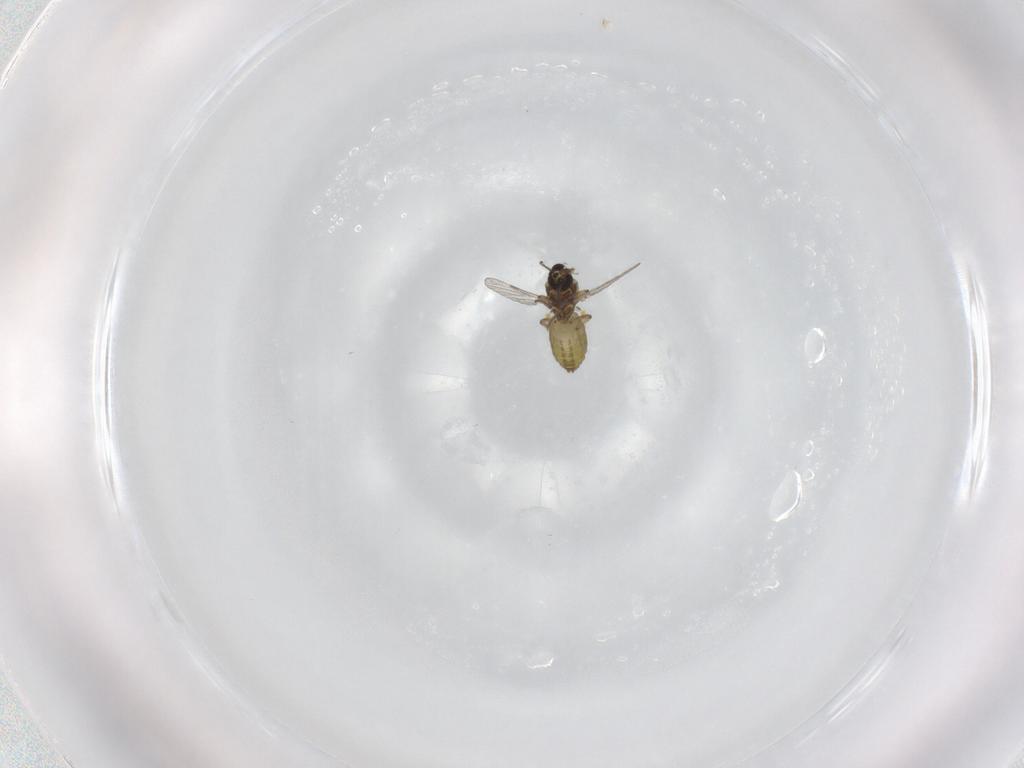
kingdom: Animalia
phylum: Arthropoda
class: Insecta
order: Diptera
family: Ceratopogonidae
